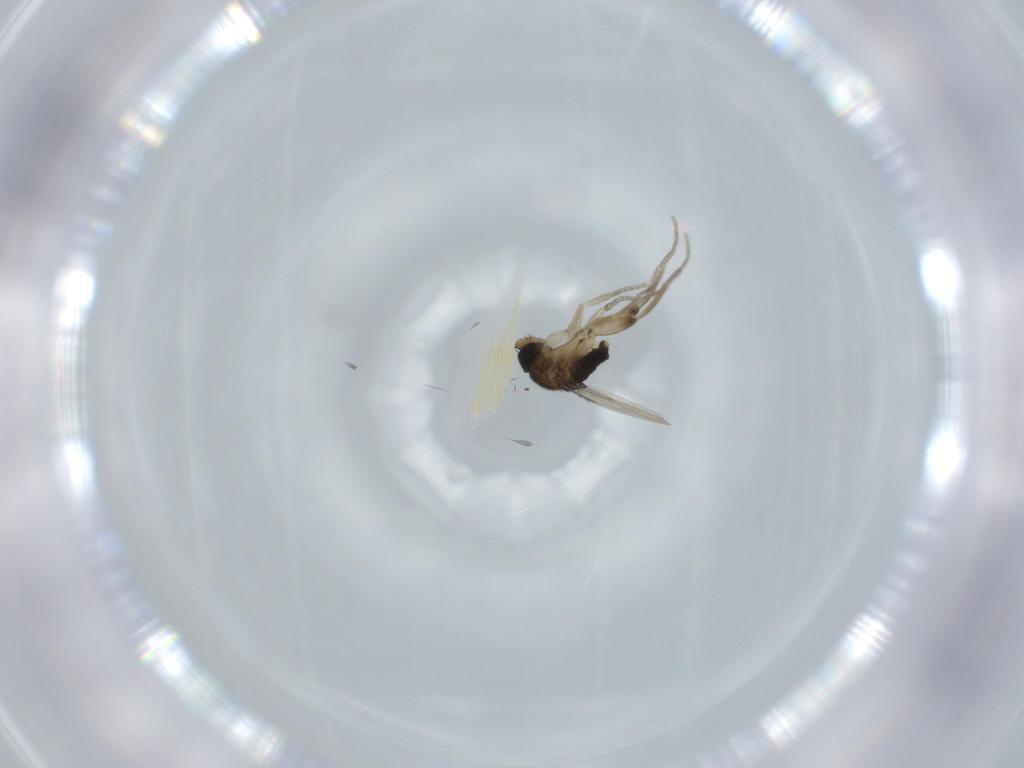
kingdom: Animalia
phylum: Arthropoda
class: Insecta
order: Diptera
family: Phoridae
